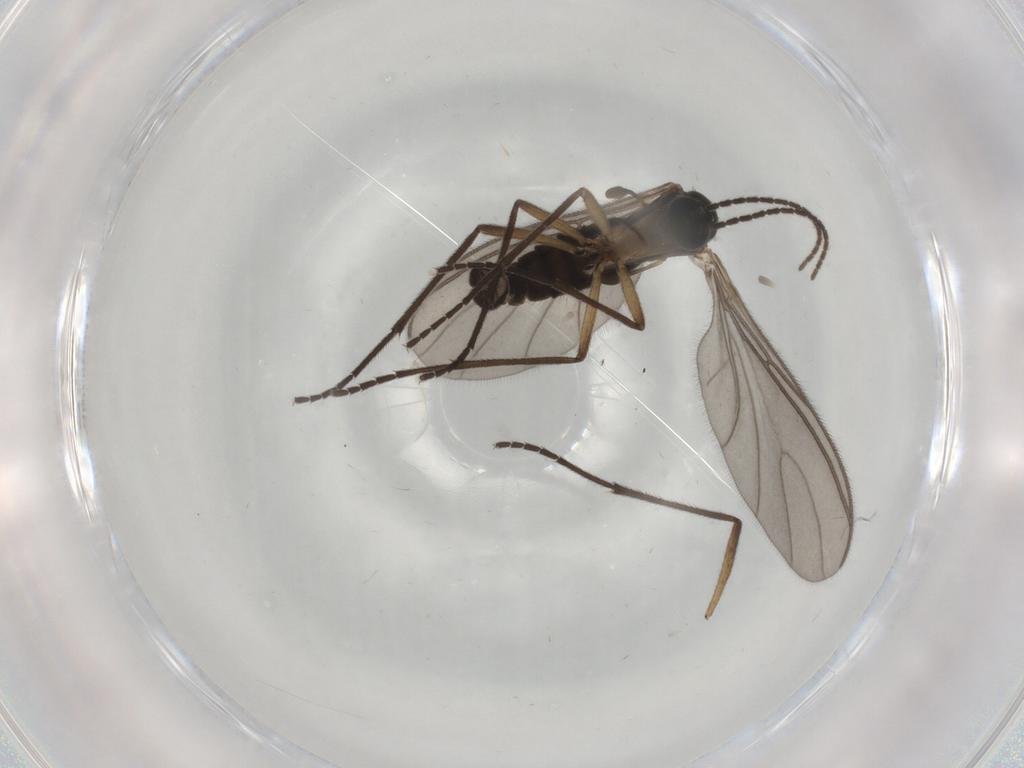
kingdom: Animalia
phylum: Arthropoda
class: Insecta
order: Diptera
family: Sciaridae
